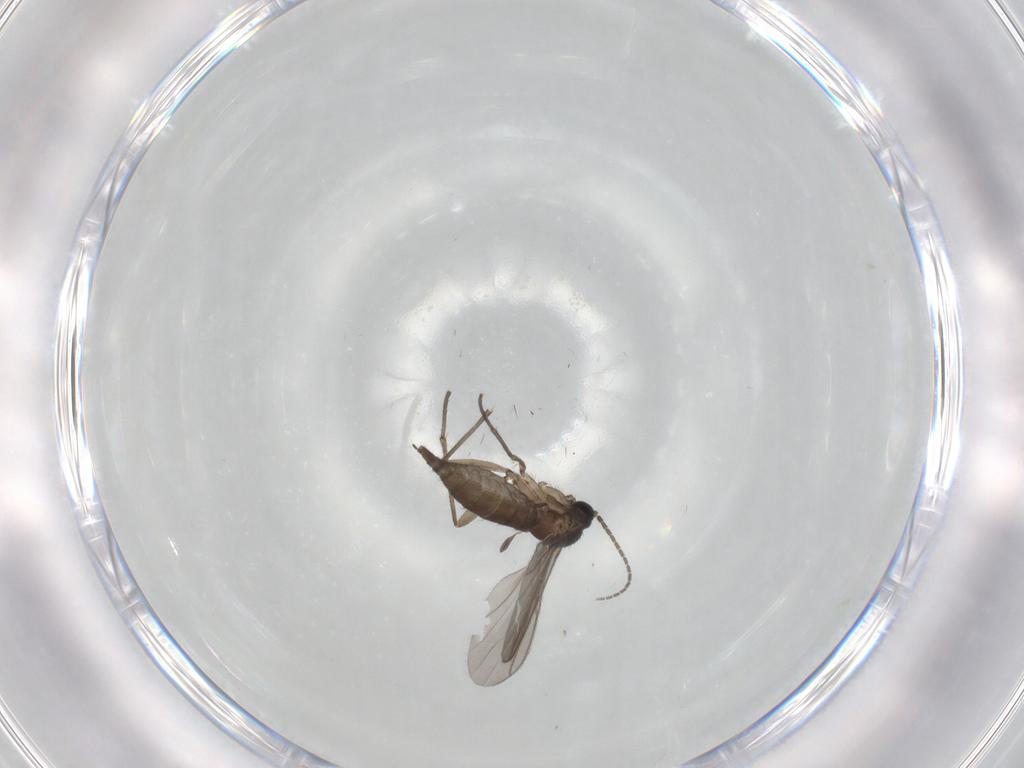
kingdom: Animalia
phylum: Arthropoda
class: Insecta
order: Diptera
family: Sciaridae
